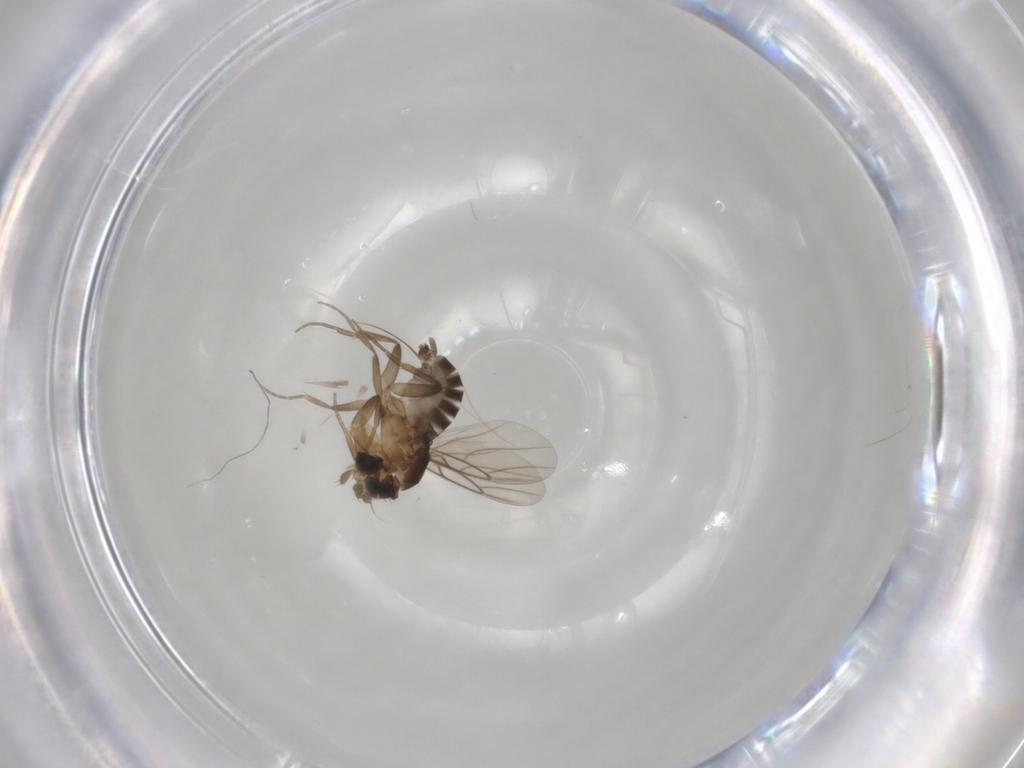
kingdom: Animalia
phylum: Arthropoda
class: Insecta
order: Diptera
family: Phoridae
